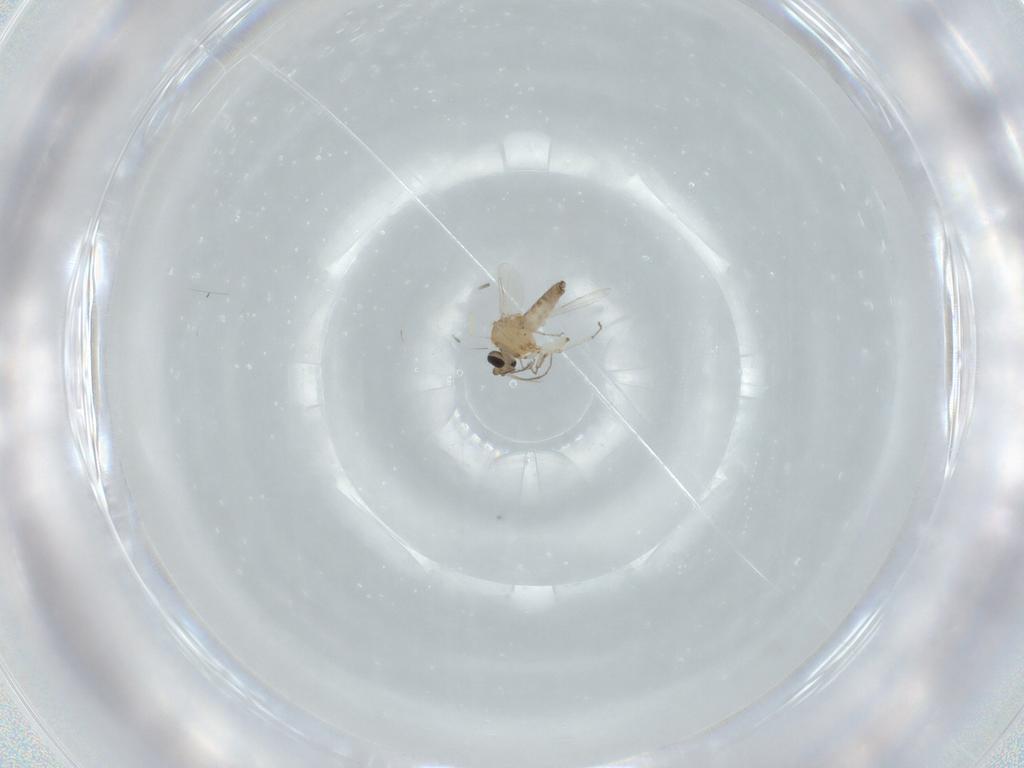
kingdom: Animalia
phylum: Arthropoda
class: Insecta
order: Diptera
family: Ceratopogonidae
